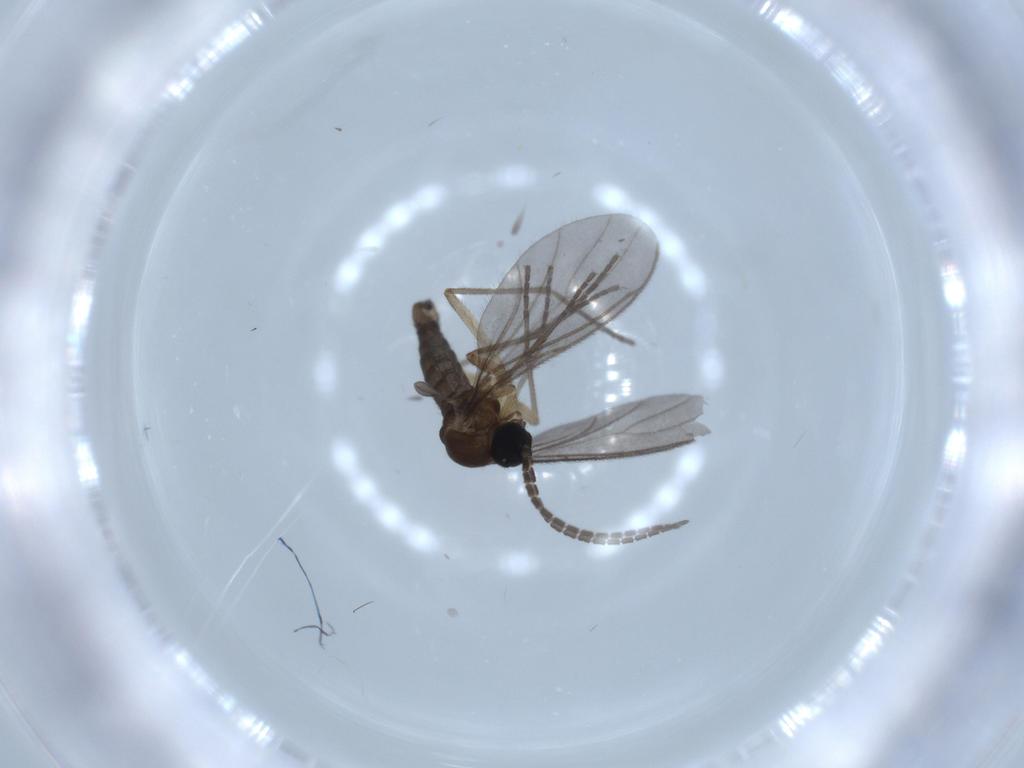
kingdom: Animalia
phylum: Arthropoda
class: Insecta
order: Diptera
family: Sciaridae
